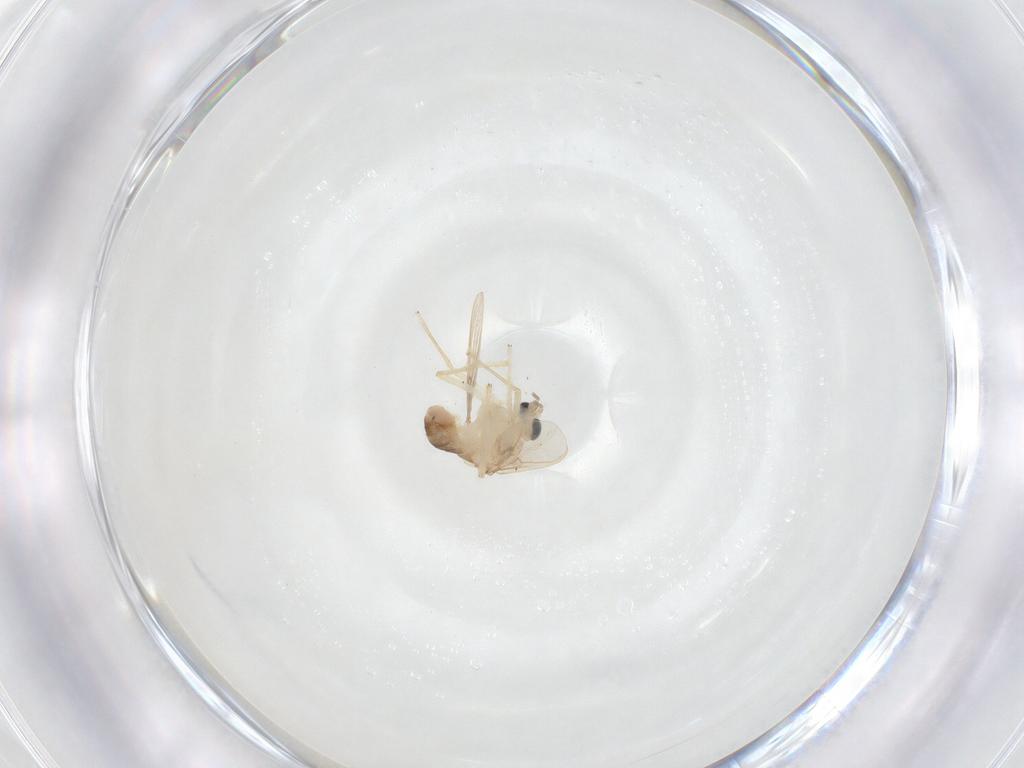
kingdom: Animalia
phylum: Arthropoda
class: Insecta
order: Diptera
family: Chironomidae
